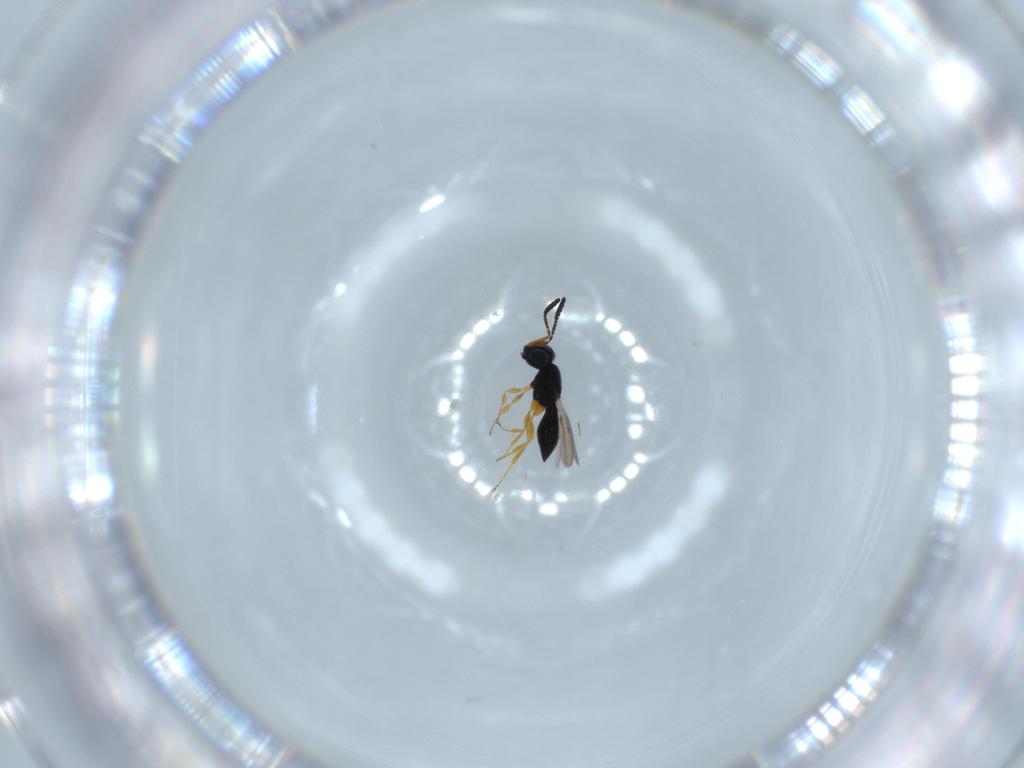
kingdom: Animalia
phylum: Arthropoda
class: Insecta
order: Hymenoptera
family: Scelionidae
